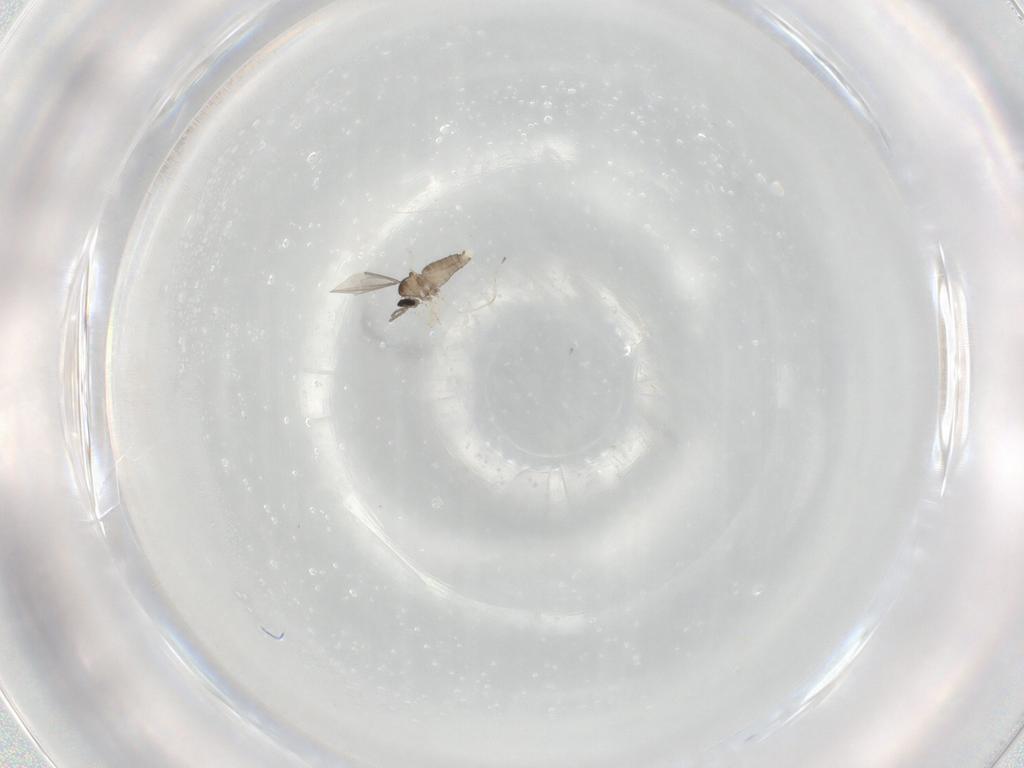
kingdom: Animalia
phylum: Arthropoda
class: Insecta
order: Diptera
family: Cecidomyiidae
